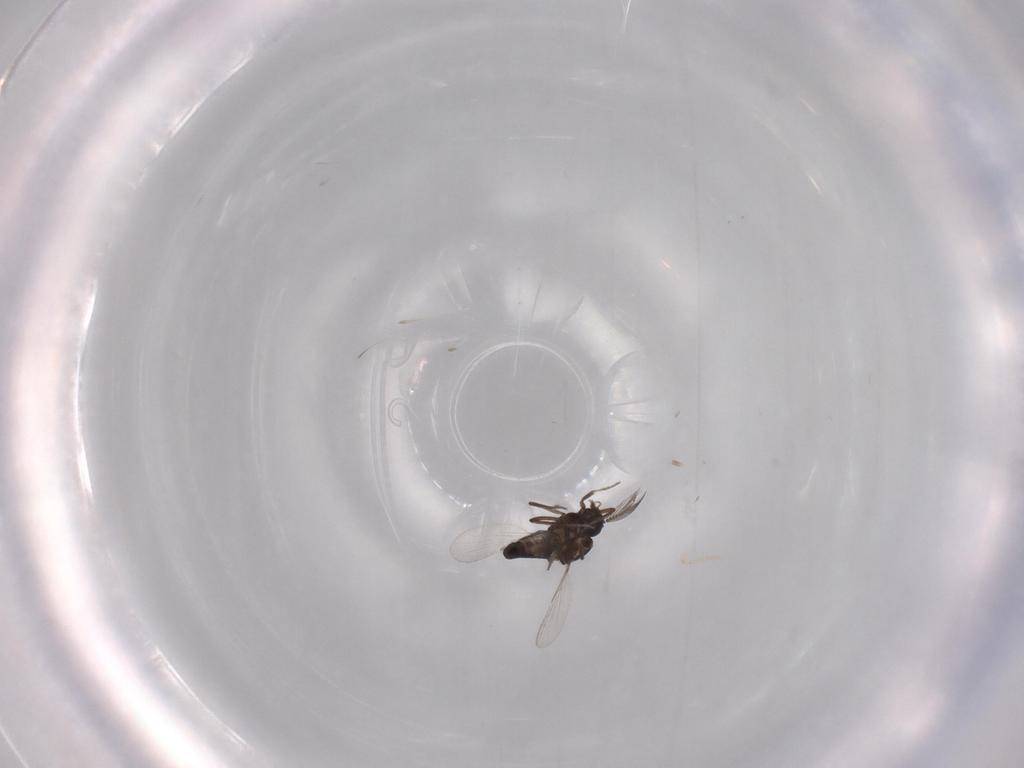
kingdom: Animalia
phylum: Arthropoda
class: Insecta
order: Diptera
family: Ceratopogonidae
